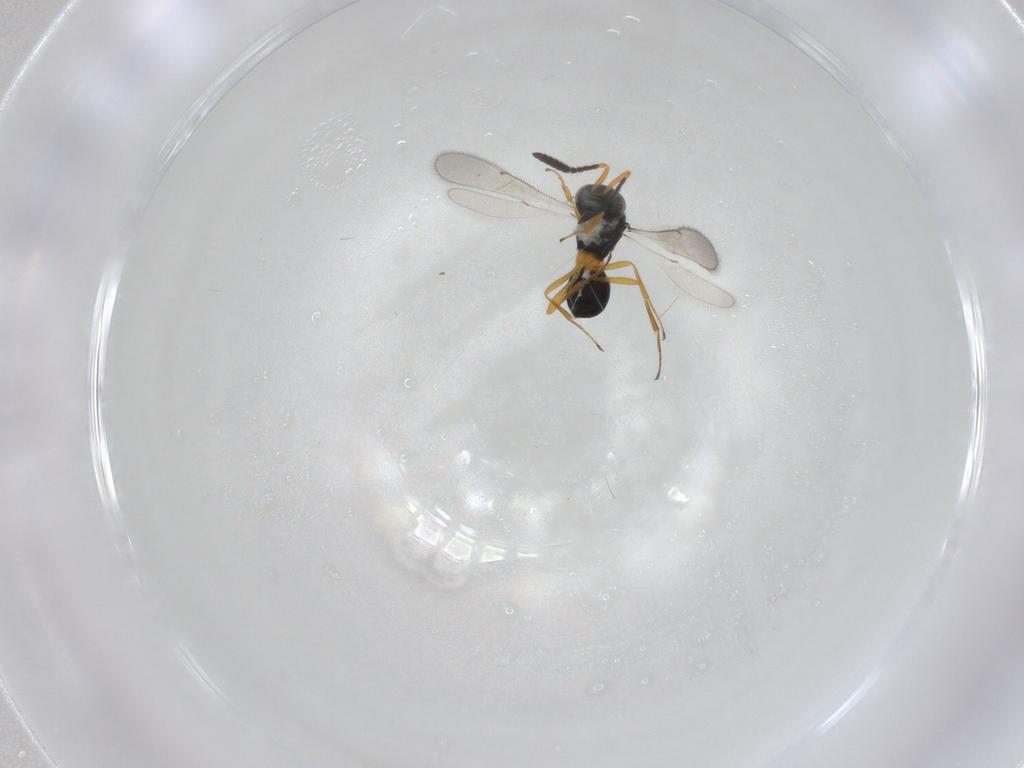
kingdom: Animalia
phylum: Arthropoda
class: Insecta
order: Hymenoptera
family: Scelionidae
